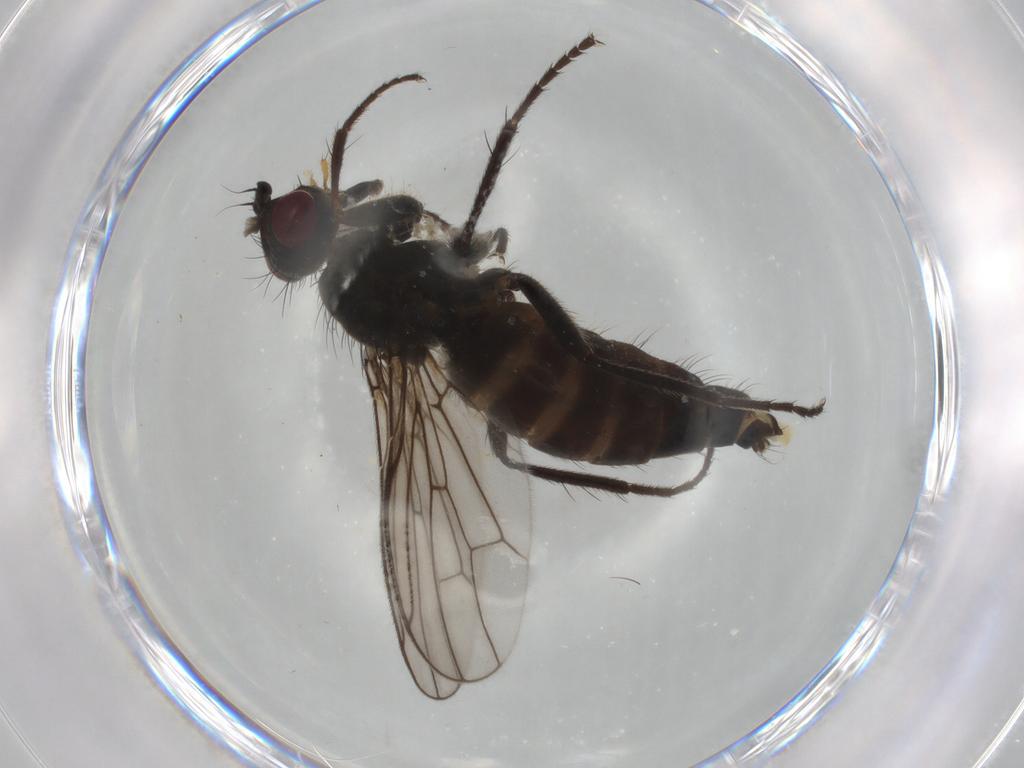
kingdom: Animalia
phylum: Arthropoda
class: Insecta
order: Diptera
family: Scathophagidae
